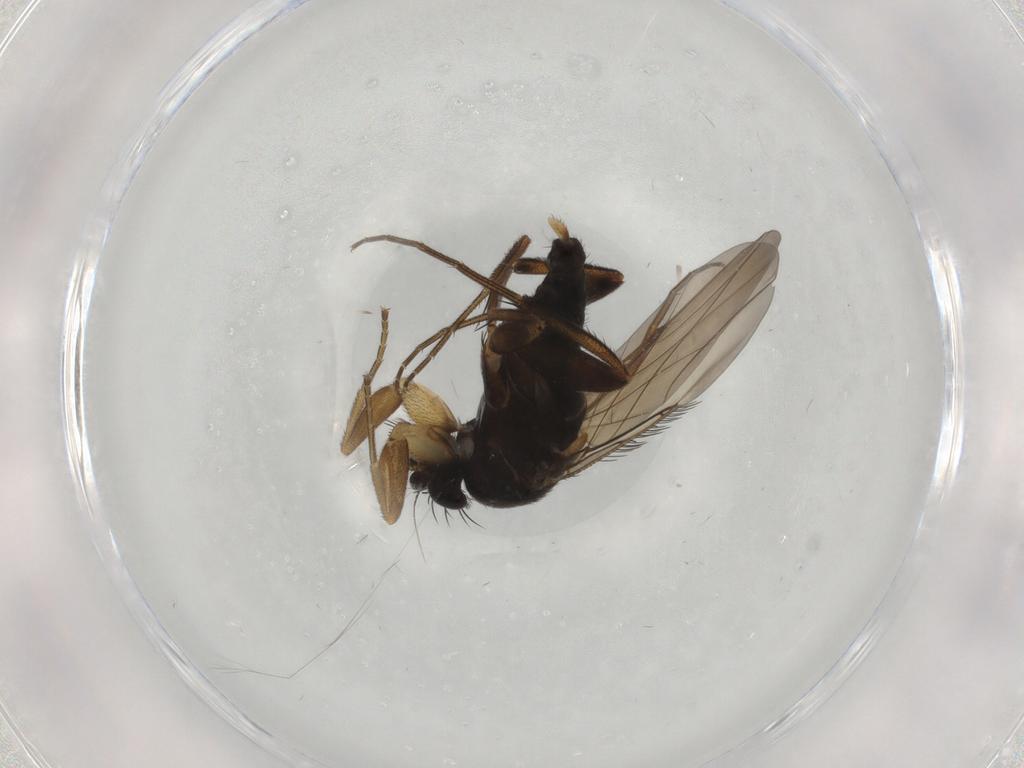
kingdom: Animalia
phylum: Arthropoda
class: Insecta
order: Diptera
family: Phoridae
